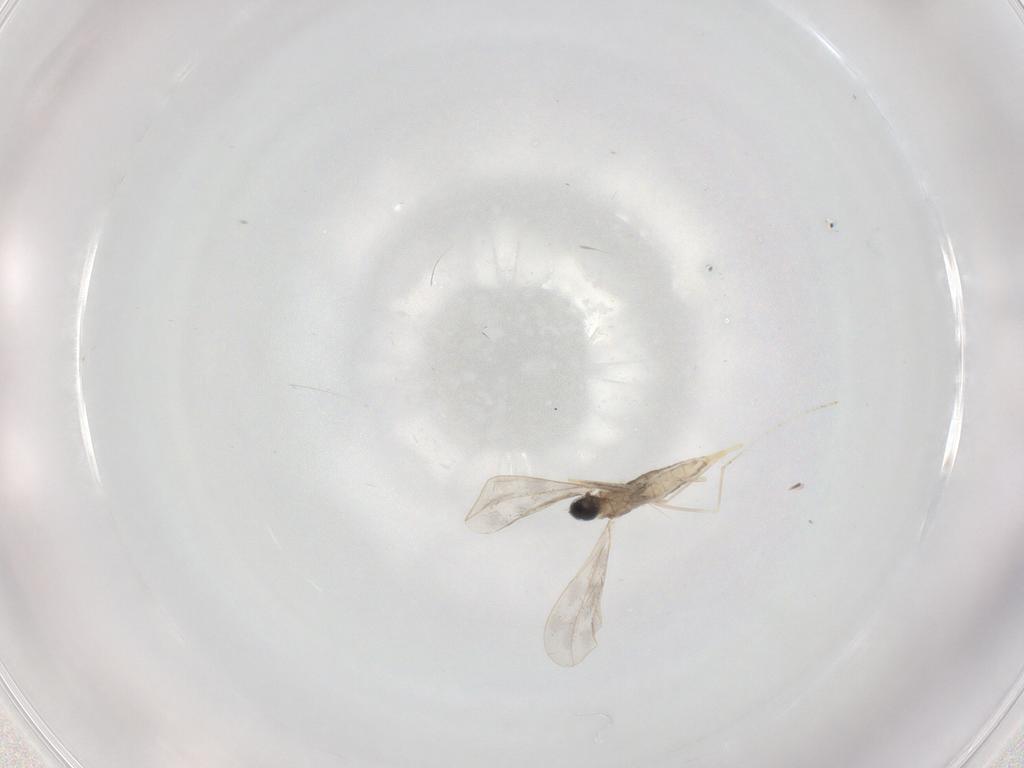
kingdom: Animalia
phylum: Arthropoda
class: Insecta
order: Diptera
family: Cecidomyiidae
